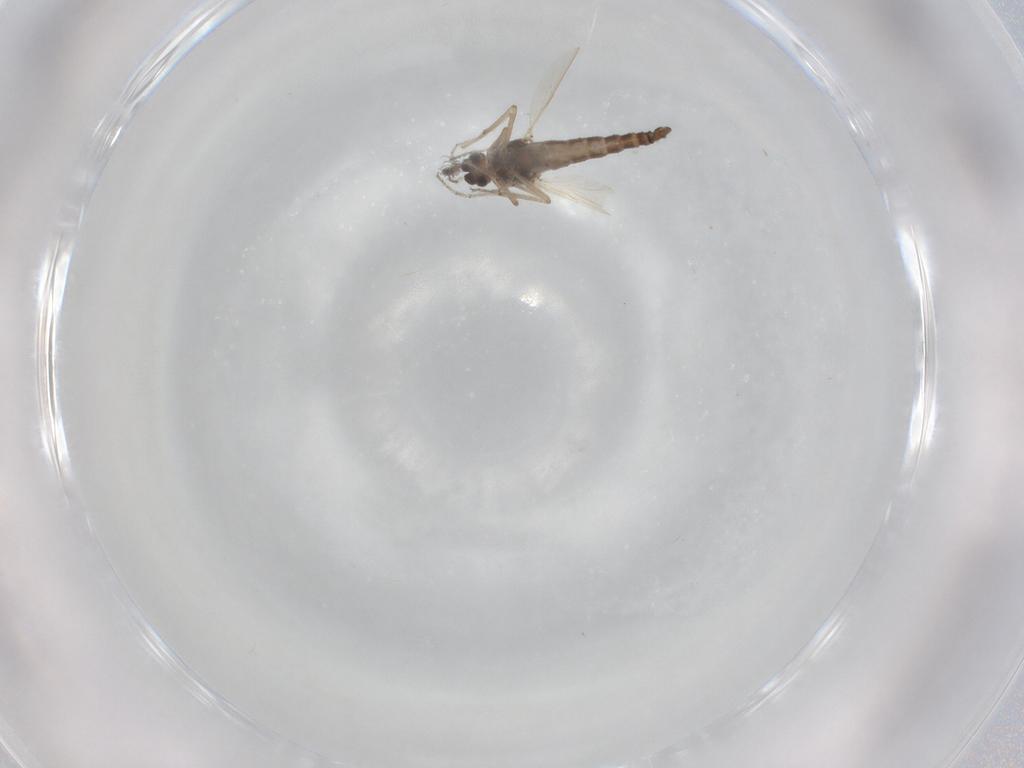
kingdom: Animalia
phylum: Arthropoda
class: Insecta
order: Diptera
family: Ceratopogonidae
